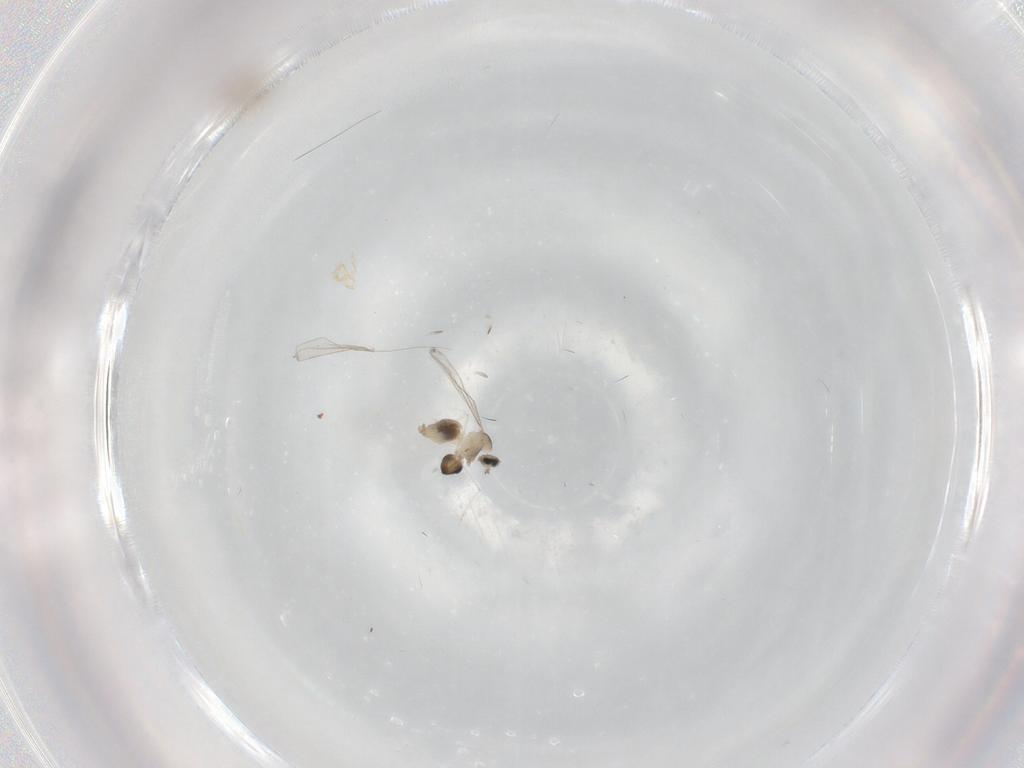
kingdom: Animalia
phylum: Arthropoda
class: Insecta
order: Diptera
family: Cecidomyiidae
